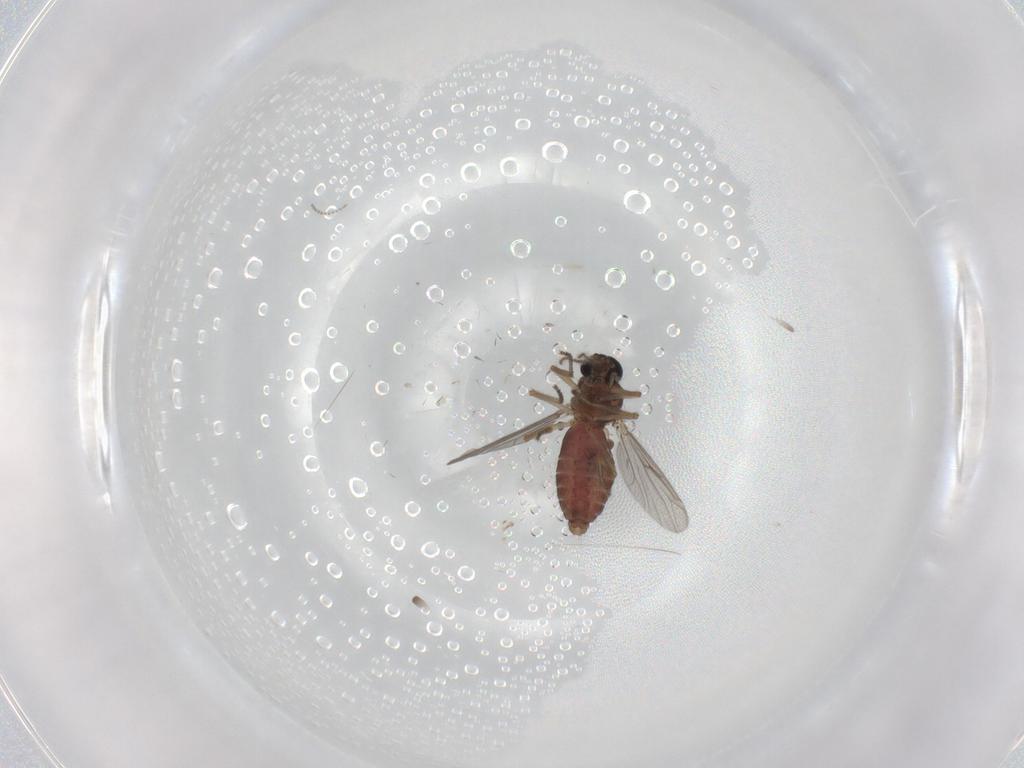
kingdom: Animalia
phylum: Arthropoda
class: Insecta
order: Diptera
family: Ceratopogonidae
